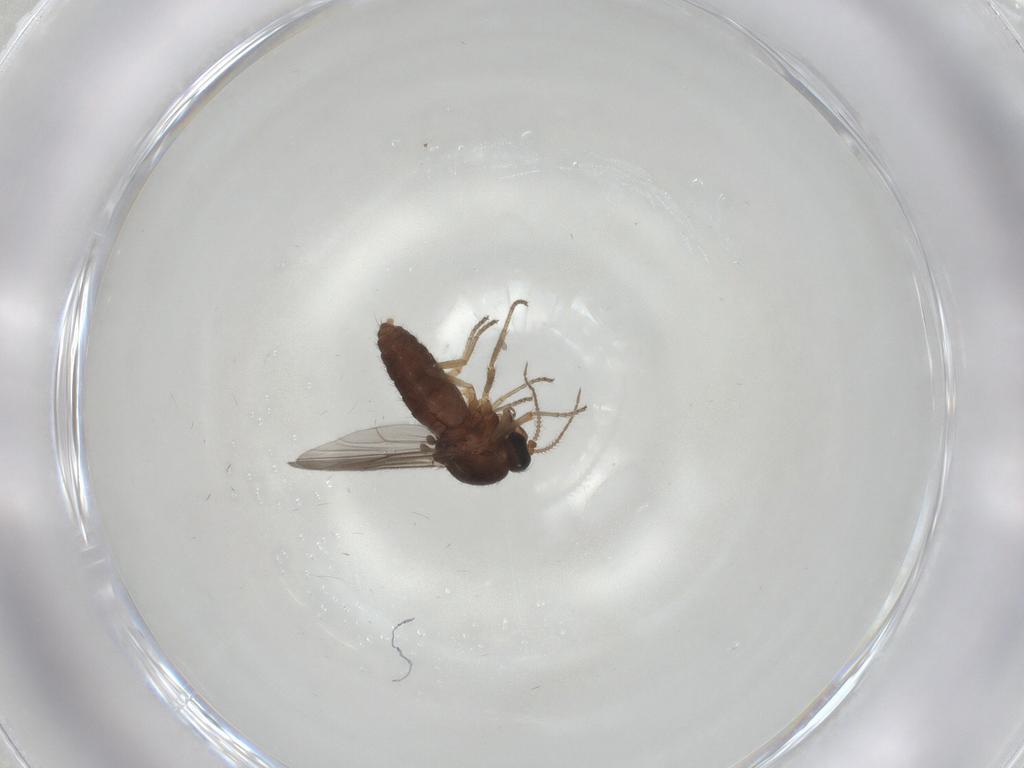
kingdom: Animalia
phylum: Arthropoda
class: Insecta
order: Diptera
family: Ceratopogonidae
